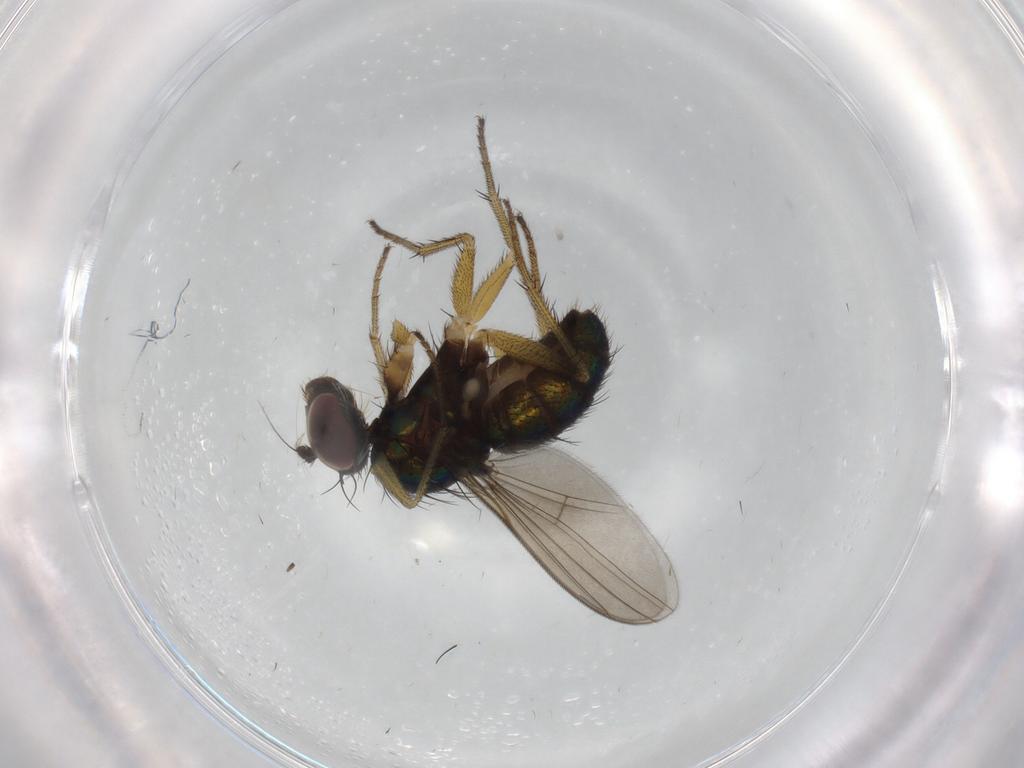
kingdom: Animalia
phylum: Arthropoda
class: Insecta
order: Diptera
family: Dolichopodidae
